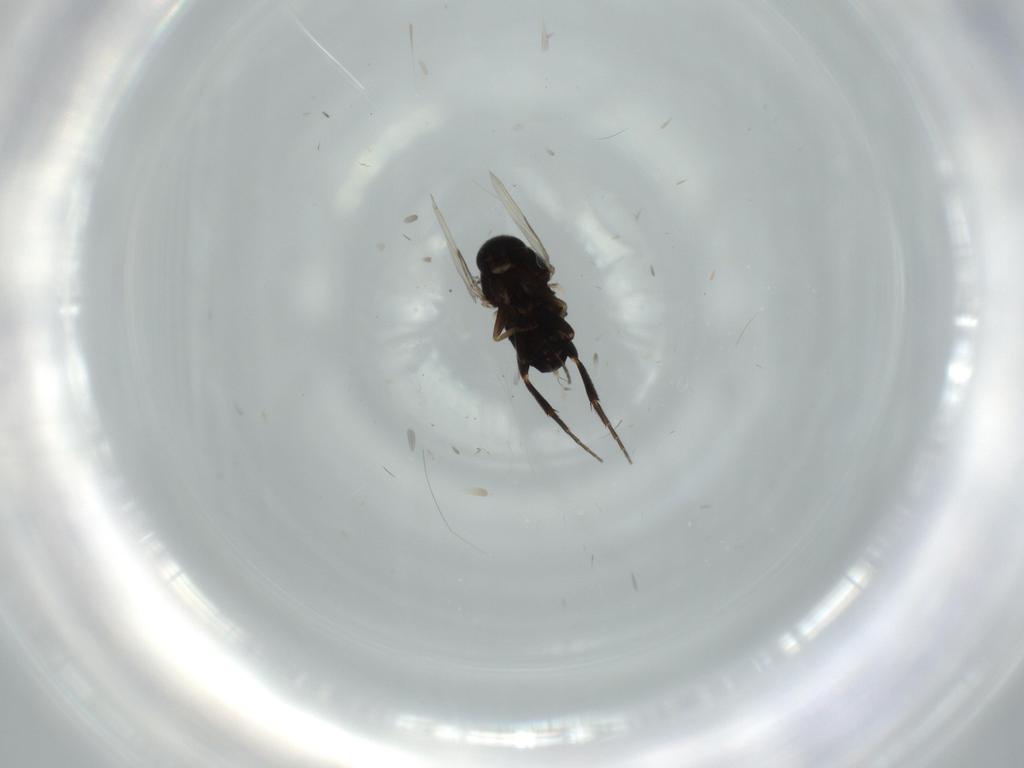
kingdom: Animalia
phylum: Arthropoda
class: Insecta
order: Diptera
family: Phoridae
